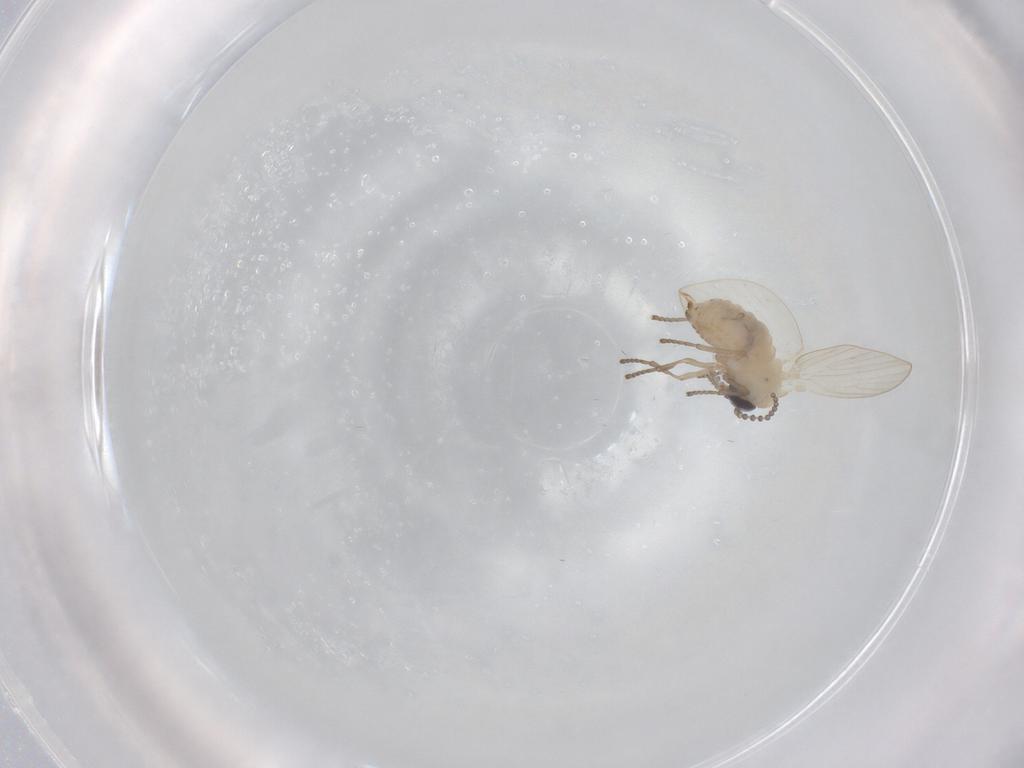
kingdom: Animalia
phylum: Arthropoda
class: Insecta
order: Diptera
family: Psychodidae
